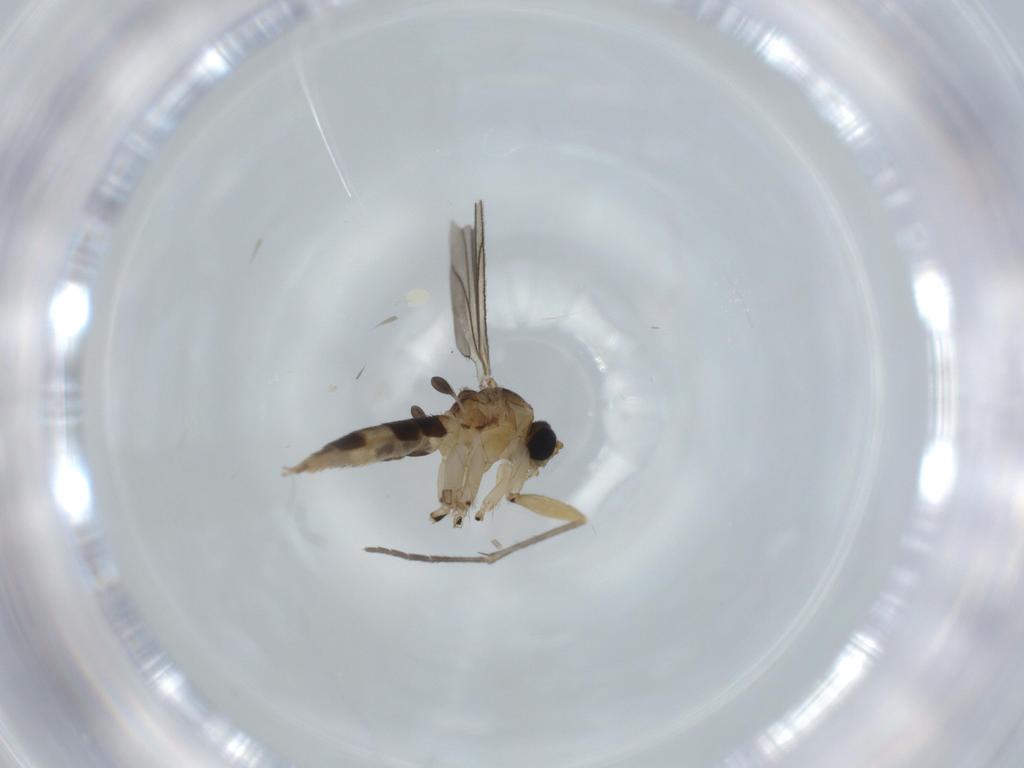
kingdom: Animalia
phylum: Arthropoda
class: Insecta
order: Diptera
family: Sciaridae
